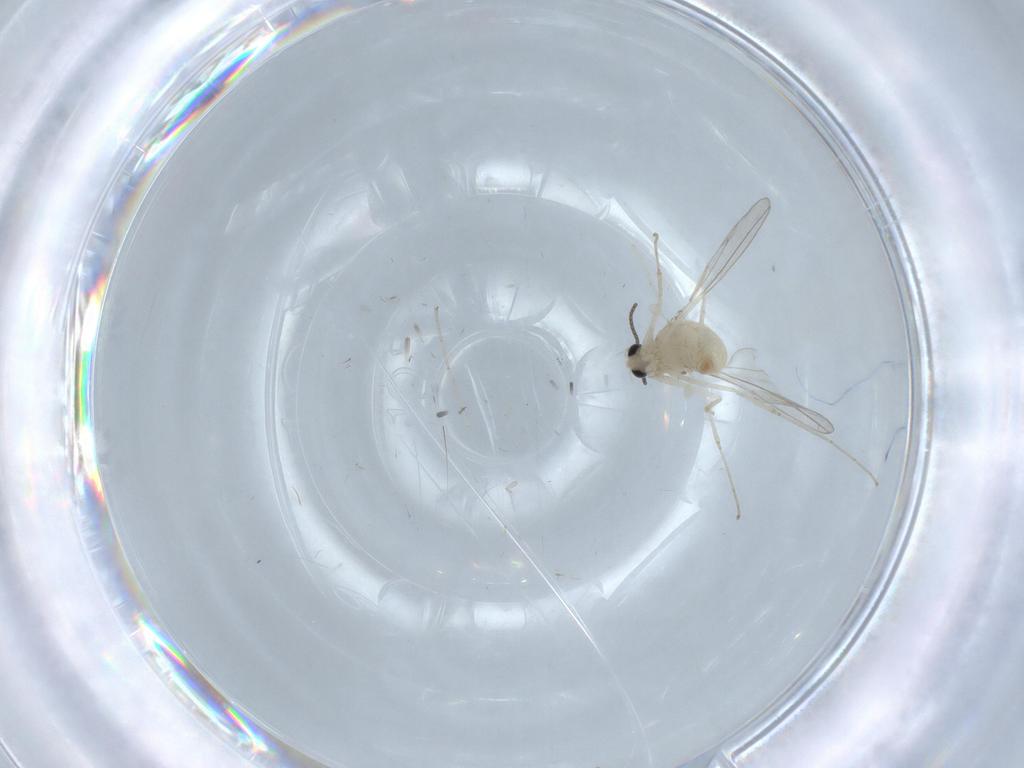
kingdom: Animalia
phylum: Arthropoda
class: Insecta
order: Diptera
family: Cecidomyiidae
